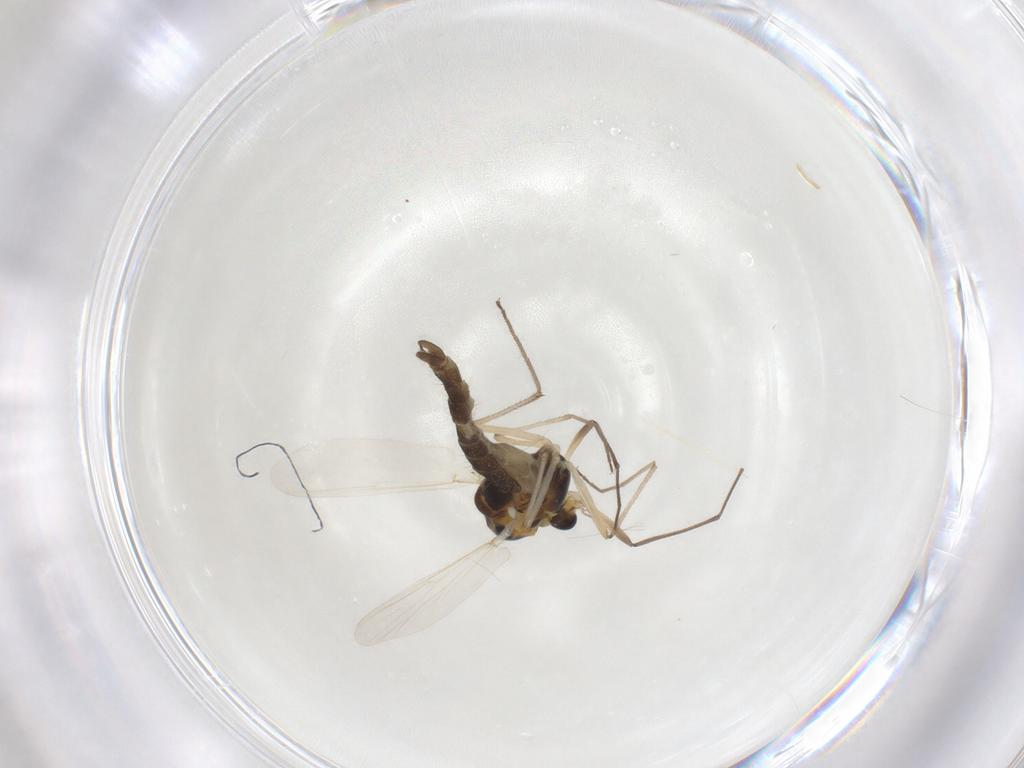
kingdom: Animalia
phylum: Arthropoda
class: Insecta
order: Diptera
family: Chironomidae
